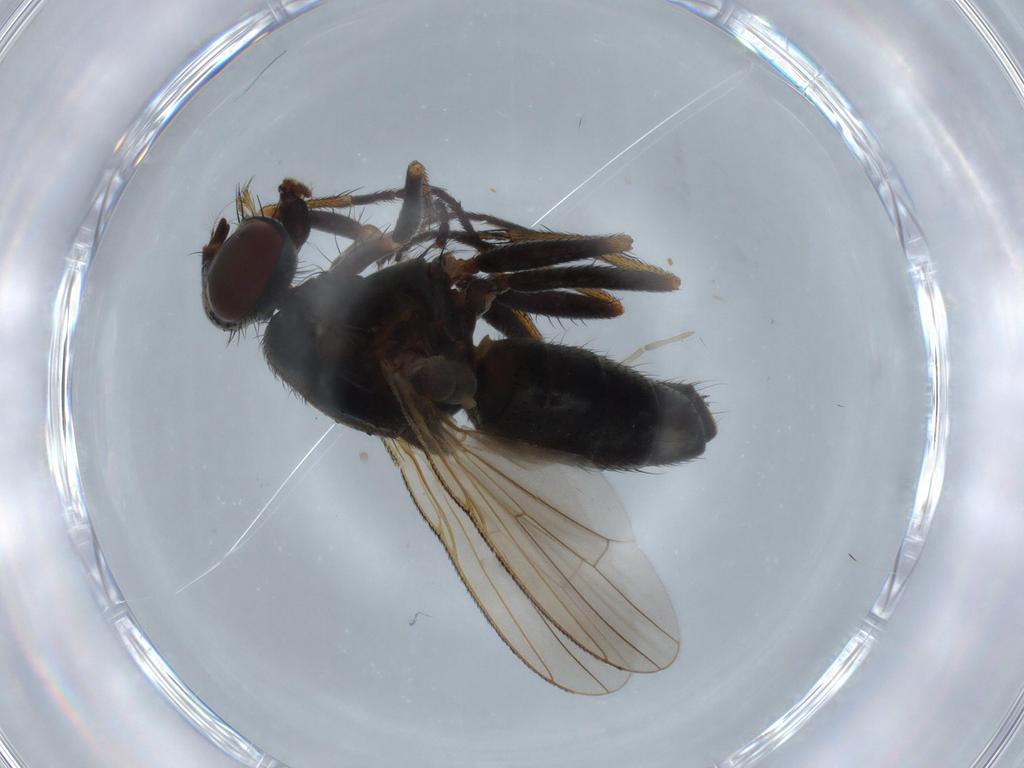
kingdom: Animalia
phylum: Arthropoda
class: Insecta
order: Diptera
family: Muscidae
